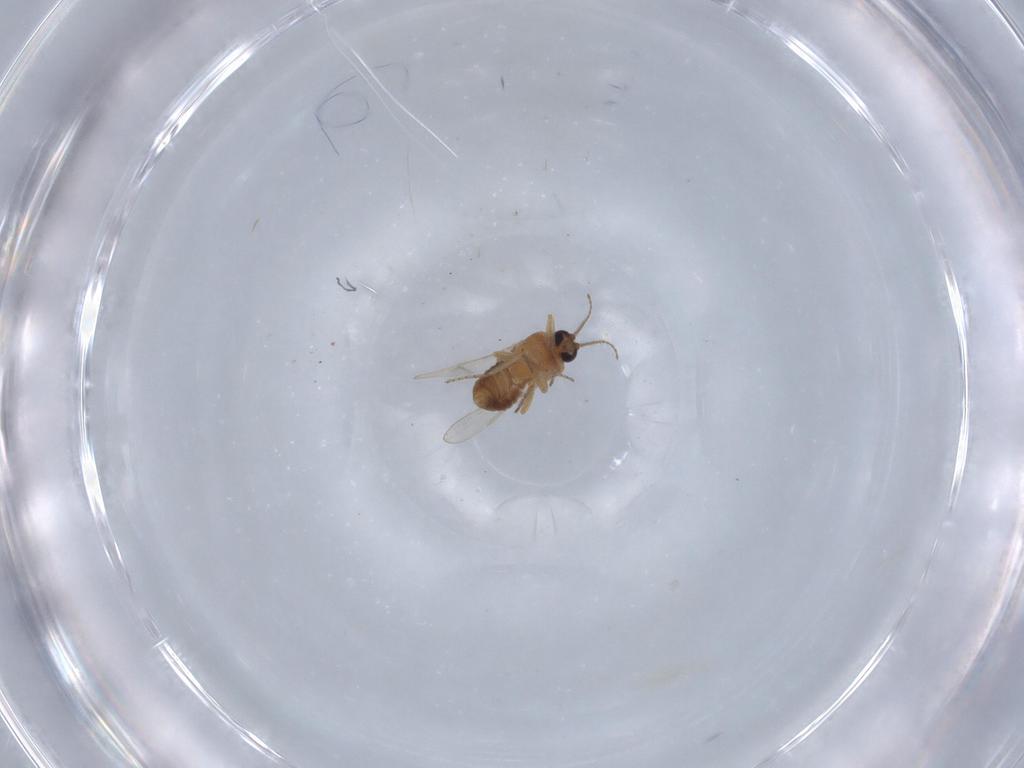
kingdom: Animalia
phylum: Arthropoda
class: Insecta
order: Diptera
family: Ceratopogonidae
